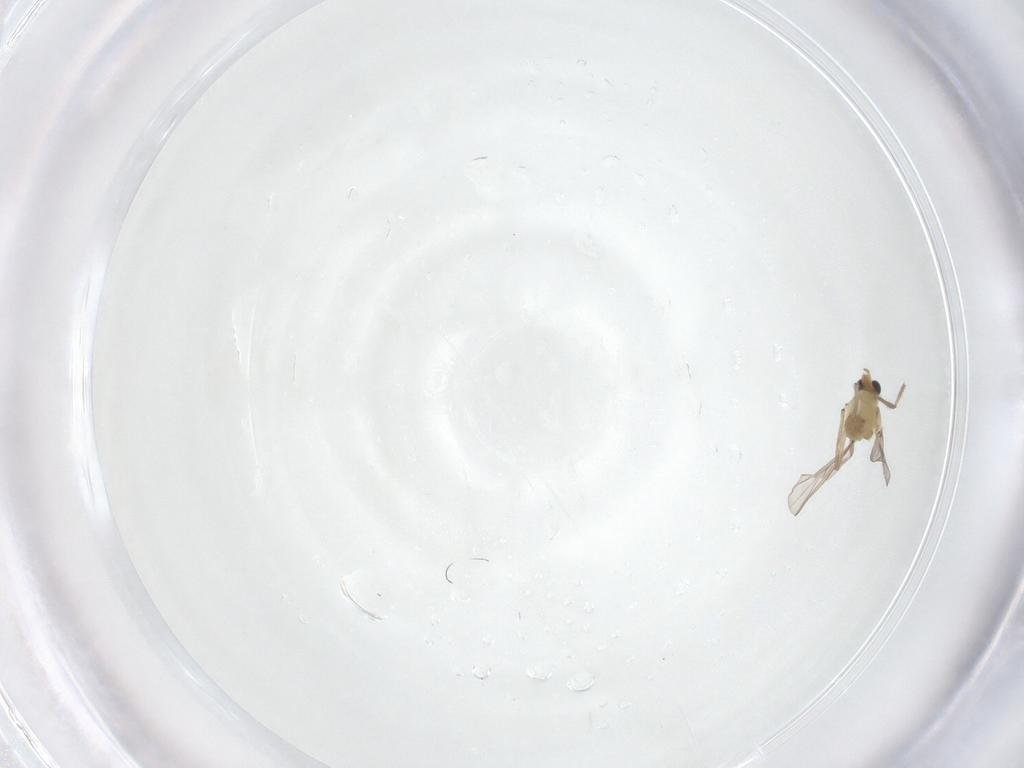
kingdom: Animalia
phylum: Arthropoda
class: Insecta
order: Diptera
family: Chironomidae
